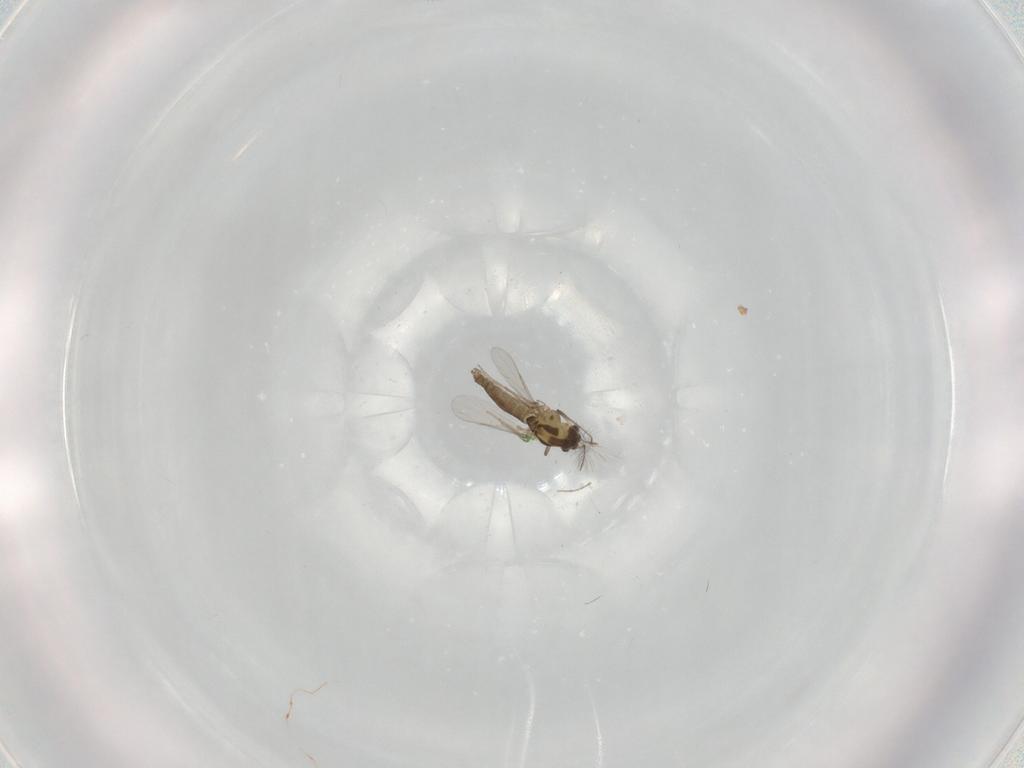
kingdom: Animalia
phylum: Arthropoda
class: Insecta
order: Diptera
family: Cecidomyiidae
